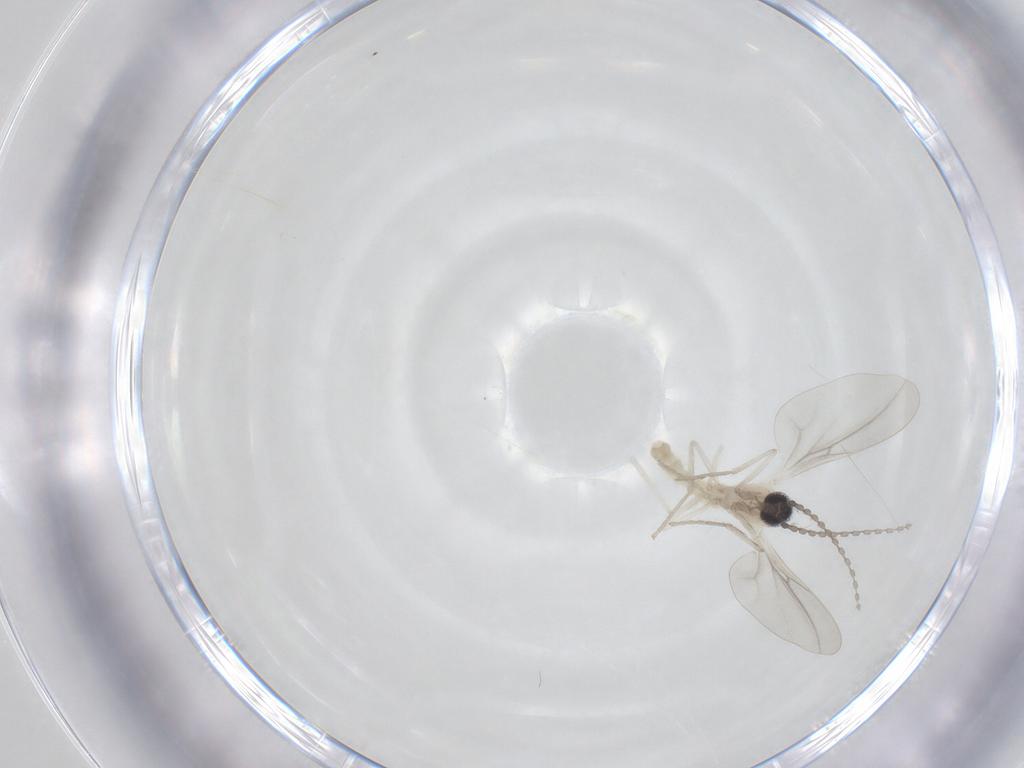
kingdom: Animalia
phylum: Arthropoda
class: Insecta
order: Diptera
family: Cecidomyiidae
